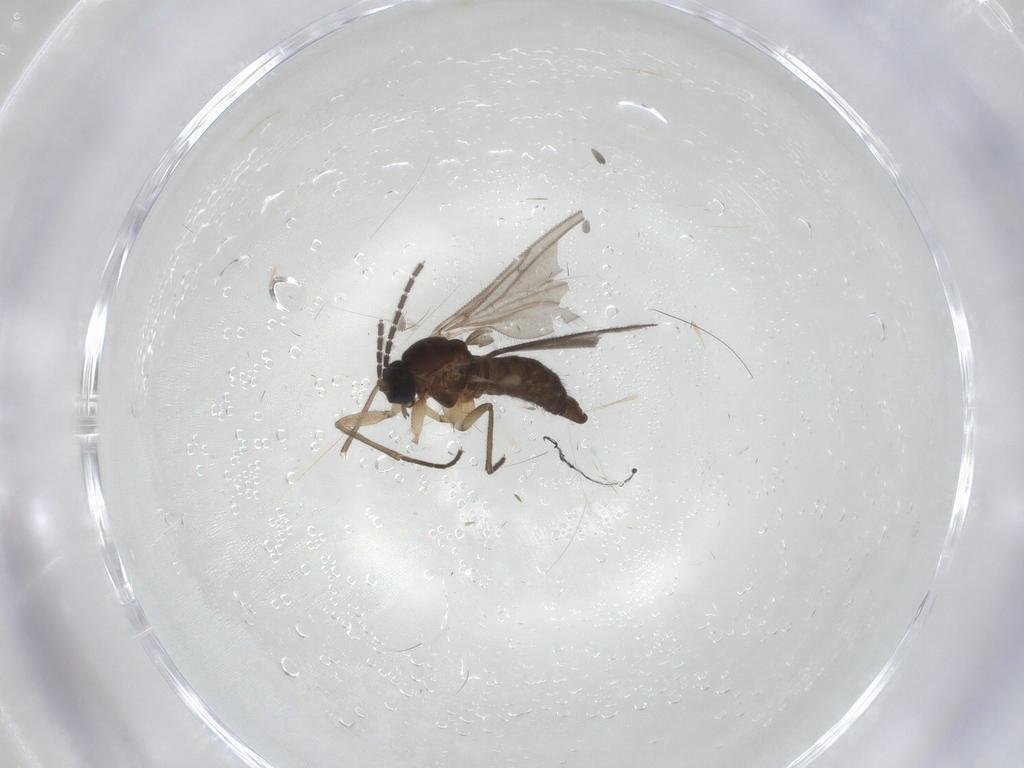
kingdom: Animalia
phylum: Arthropoda
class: Insecta
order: Diptera
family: Sciaridae
